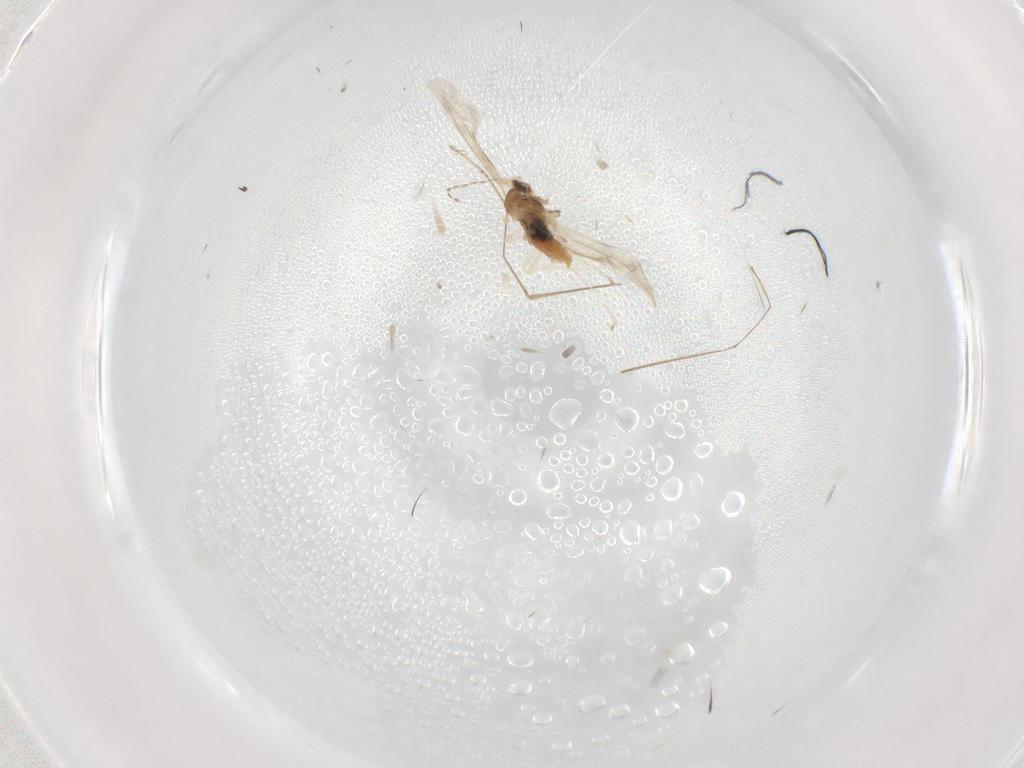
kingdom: Animalia
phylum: Arthropoda
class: Insecta
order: Diptera
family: Cecidomyiidae
